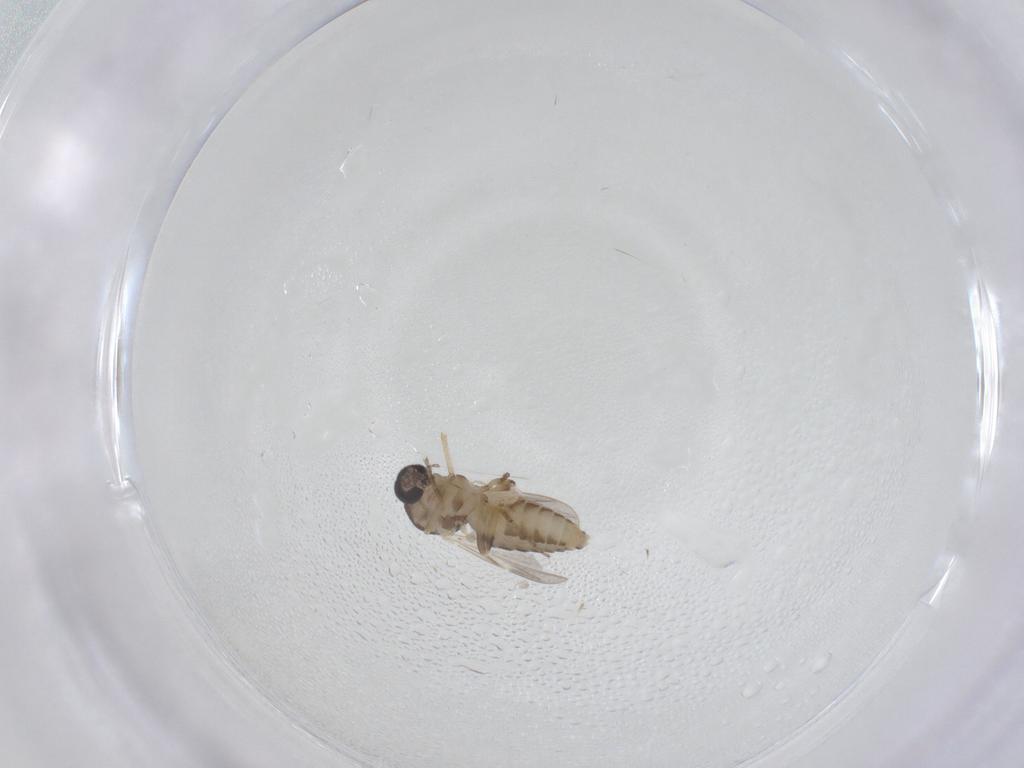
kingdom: Animalia
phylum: Arthropoda
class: Insecta
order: Diptera
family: Ceratopogonidae
